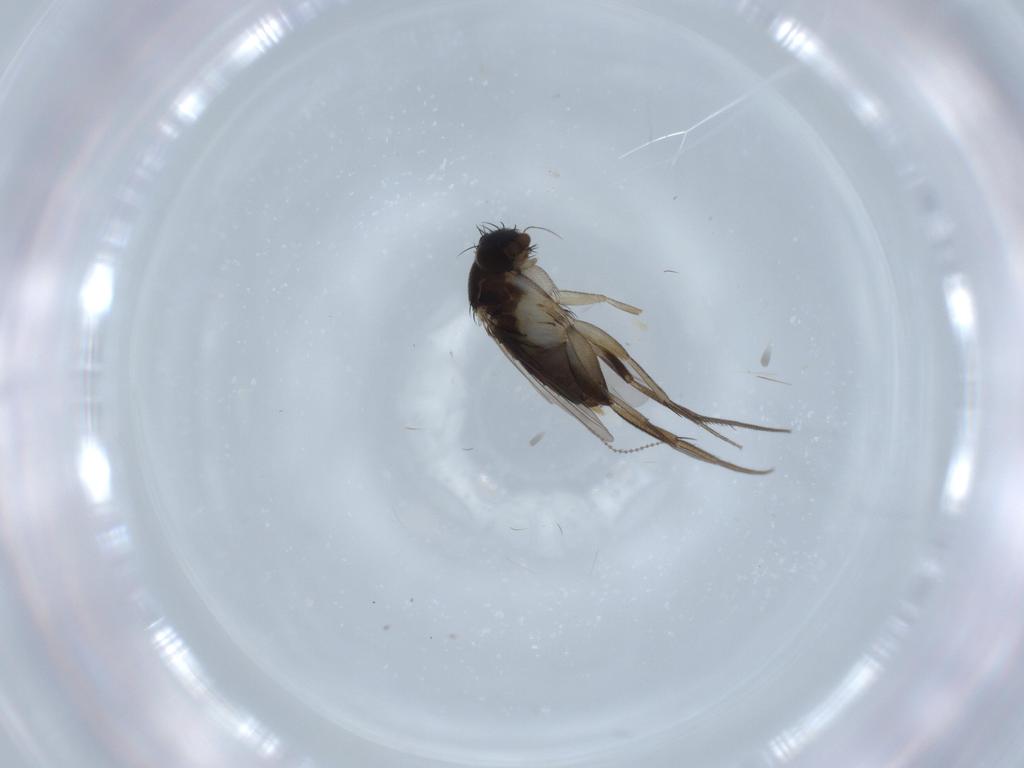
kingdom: Animalia
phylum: Arthropoda
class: Insecta
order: Diptera
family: Phoridae
